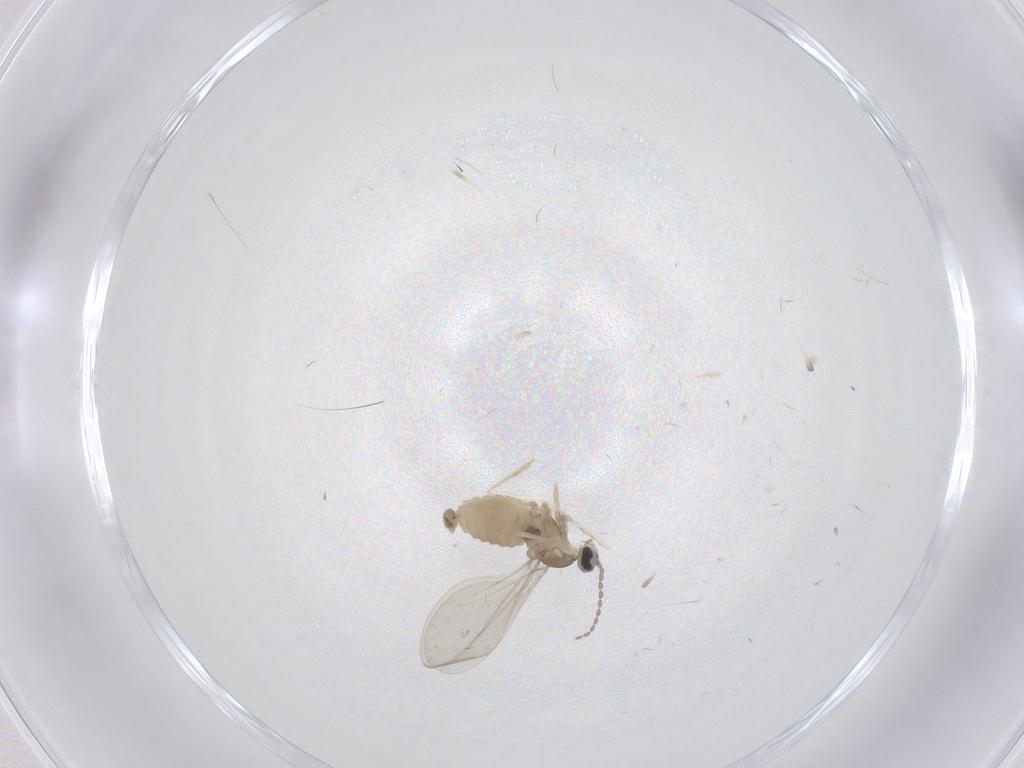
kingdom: Animalia
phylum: Arthropoda
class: Insecta
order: Diptera
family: Cecidomyiidae
